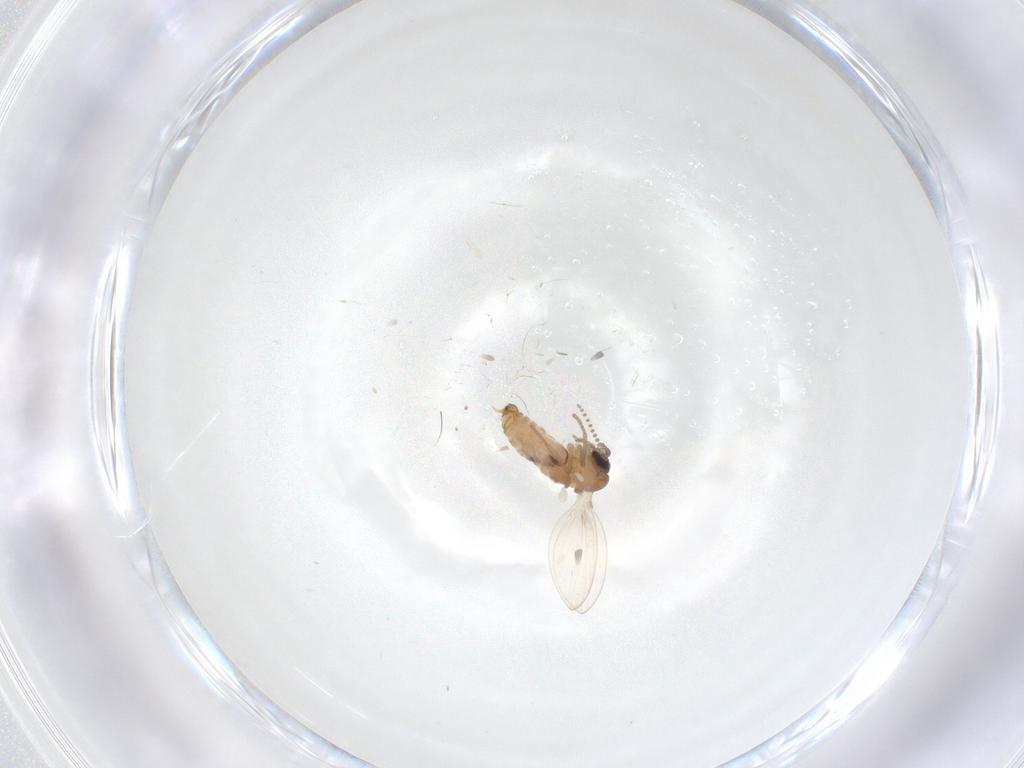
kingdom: Animalia
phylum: Arthropoda
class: Insecta
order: Diptera
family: Psychodidae
